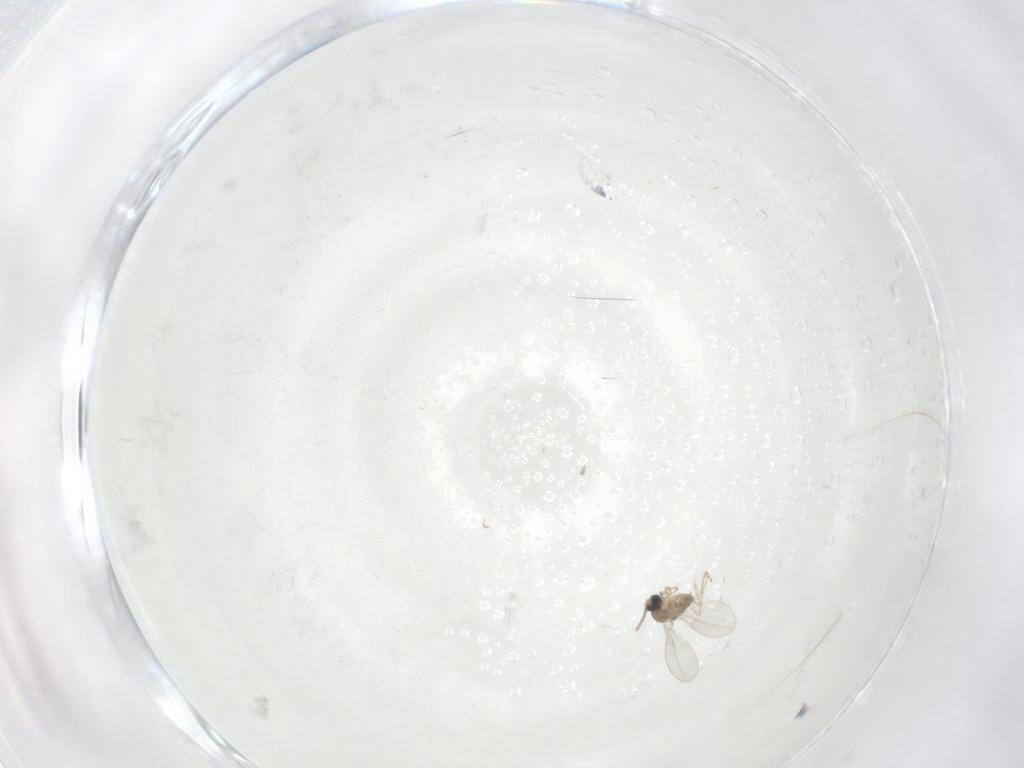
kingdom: Animalia
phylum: Arthropoda
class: Insecta
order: Diptera
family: Cecidomyiidae
